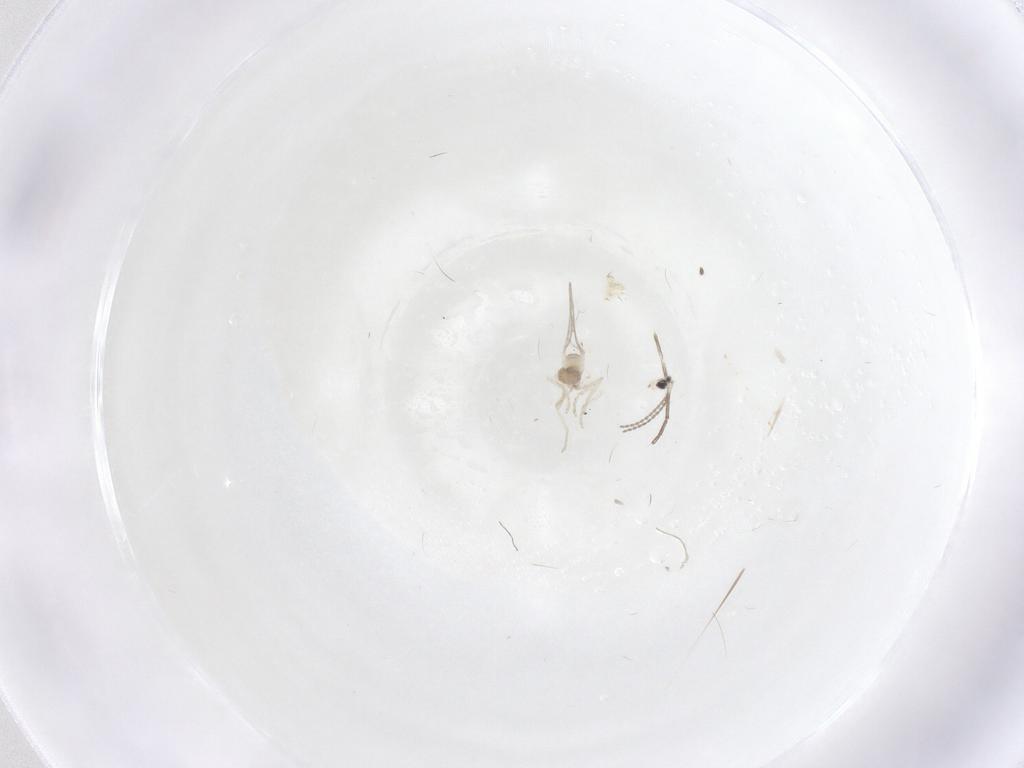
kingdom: Animalia
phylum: Arthropoda
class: Insecta
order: Diptera
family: Cecidomyiidae
